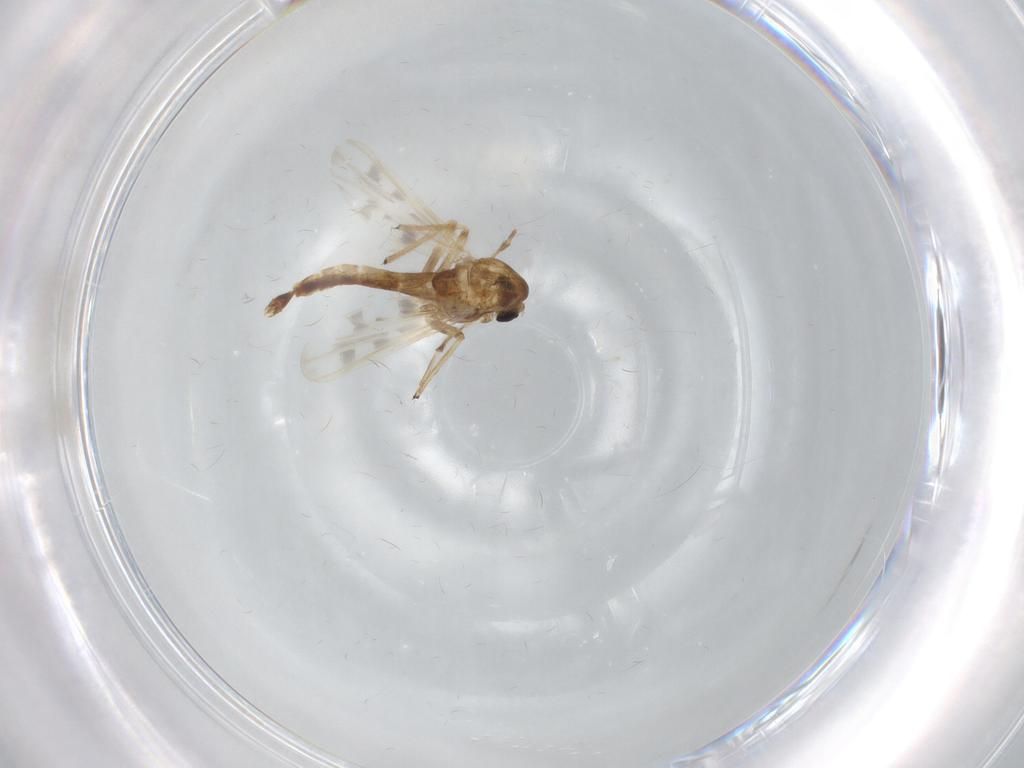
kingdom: Animalia
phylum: Arthropoda
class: Insecta
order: Diptera
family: Chironomidae
